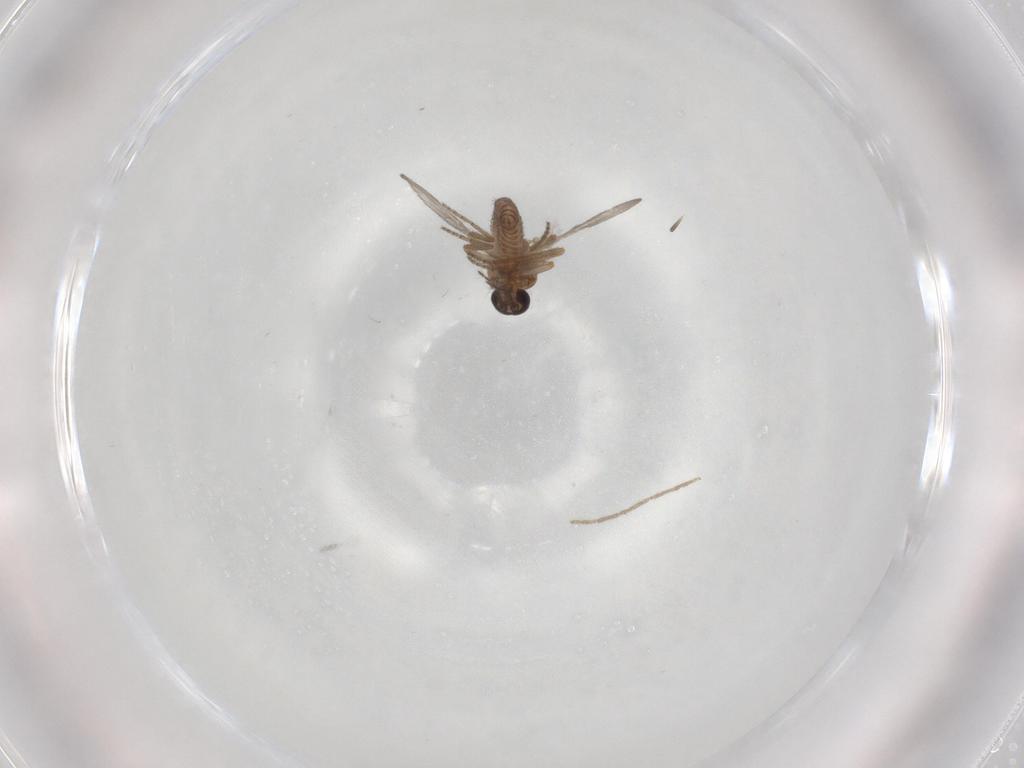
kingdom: Animalia
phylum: Arthropoda
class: Insecta
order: Diptera
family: Ceratopogonidae
